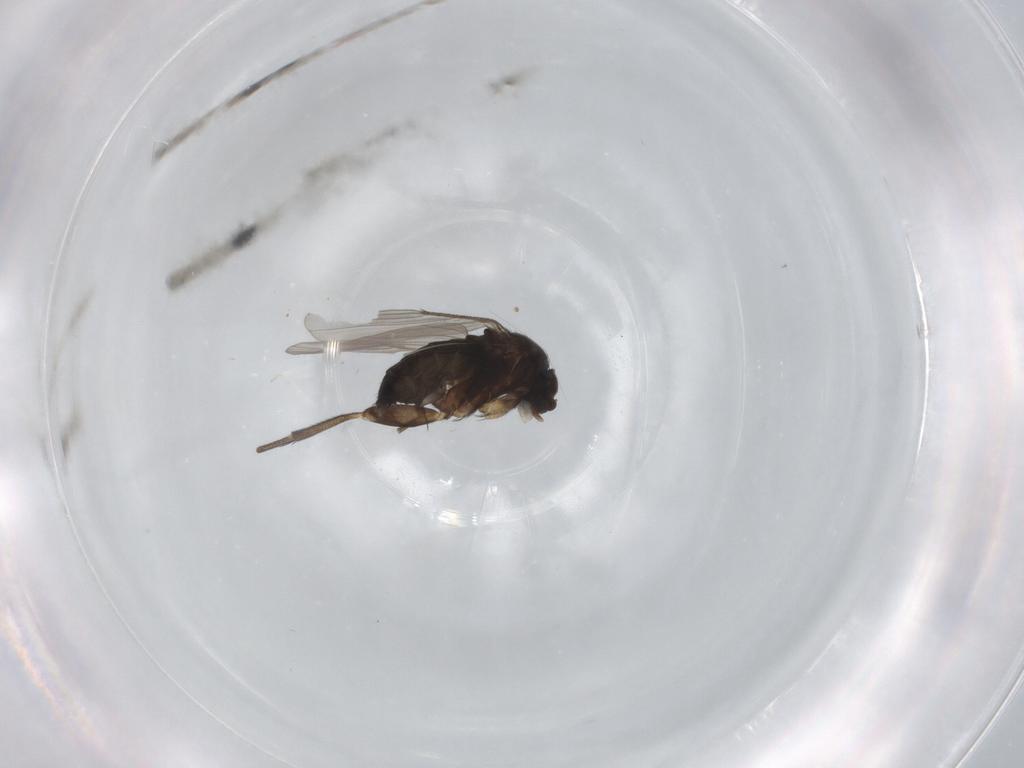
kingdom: Animalia
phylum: Arthropoda
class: Insecta
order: Diptera
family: Phoridae
